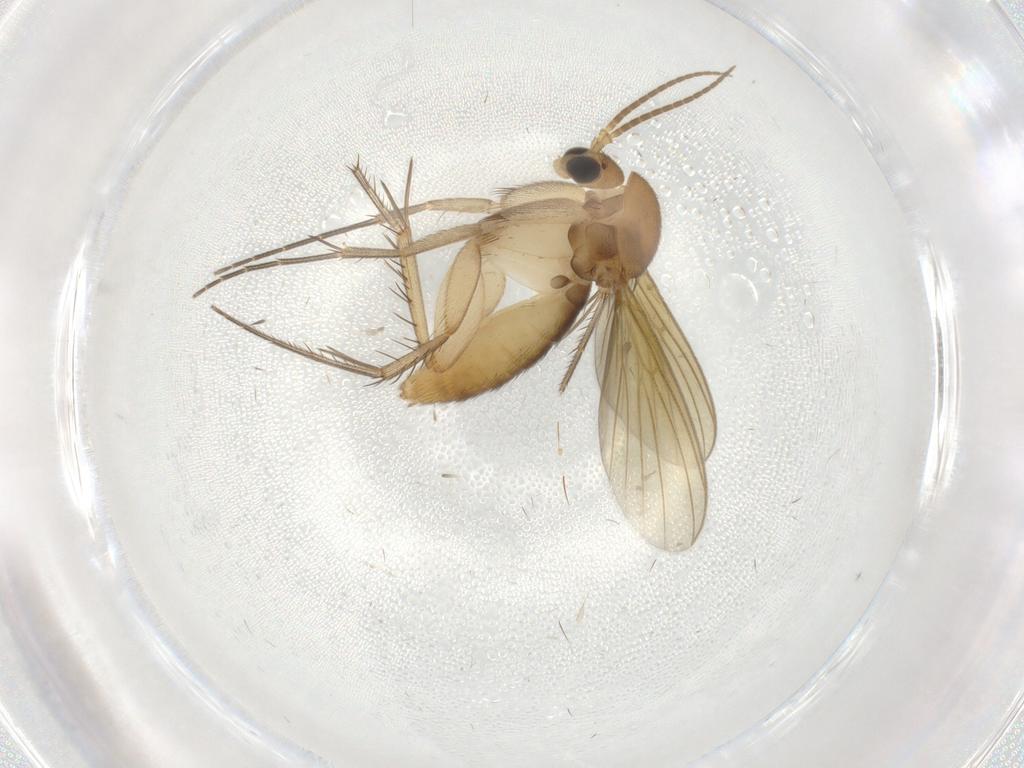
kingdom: Animalia
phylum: Arthropoda
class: Insecta
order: Diptera
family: Mycetophilidae
